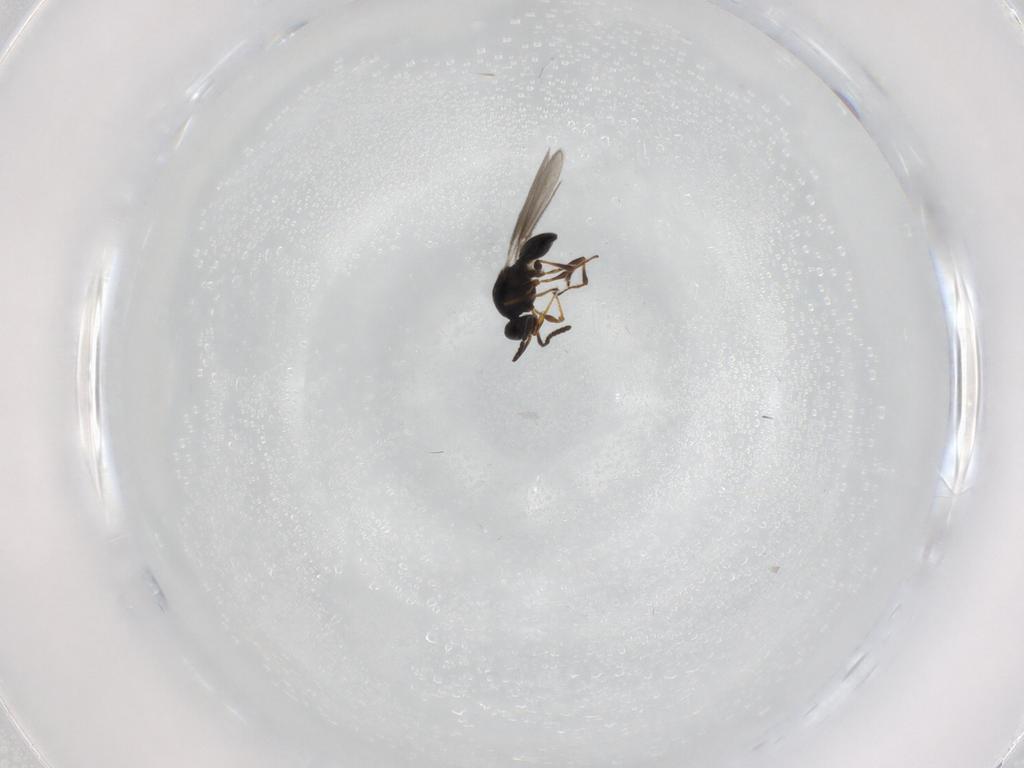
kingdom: Animalia
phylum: Arthropoda
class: Insecta
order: Hymenoptera
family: Platygastridae
